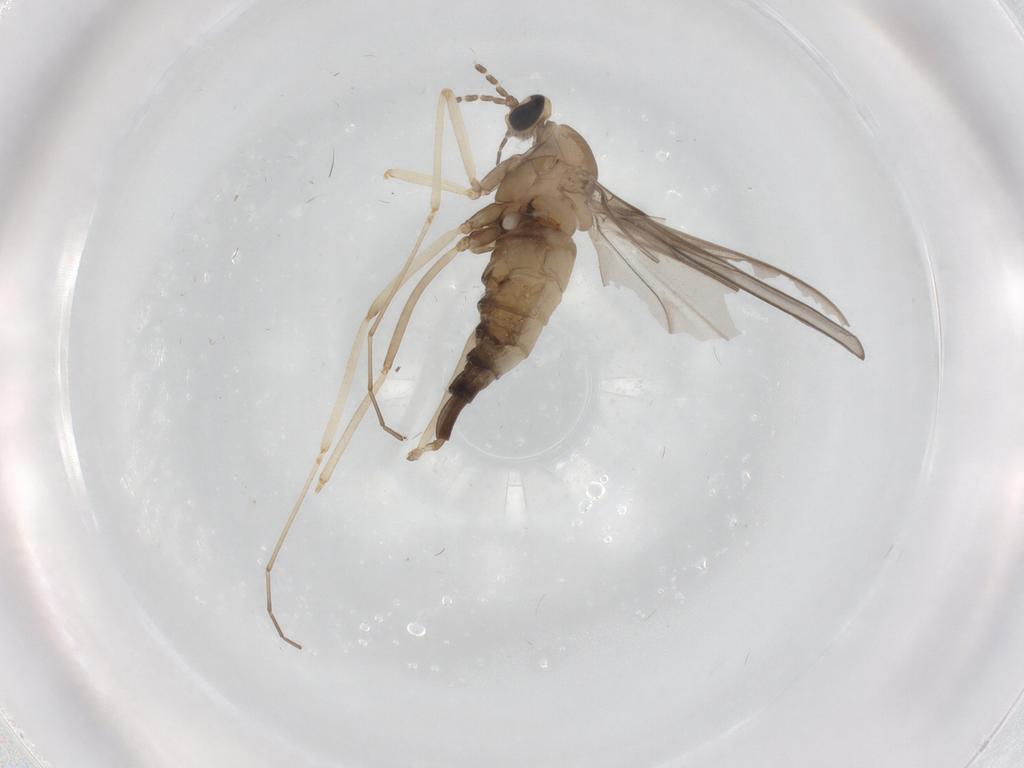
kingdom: Animalia
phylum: Arthropoda
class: Insecta
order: Diptera
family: Cecidomyiidae
